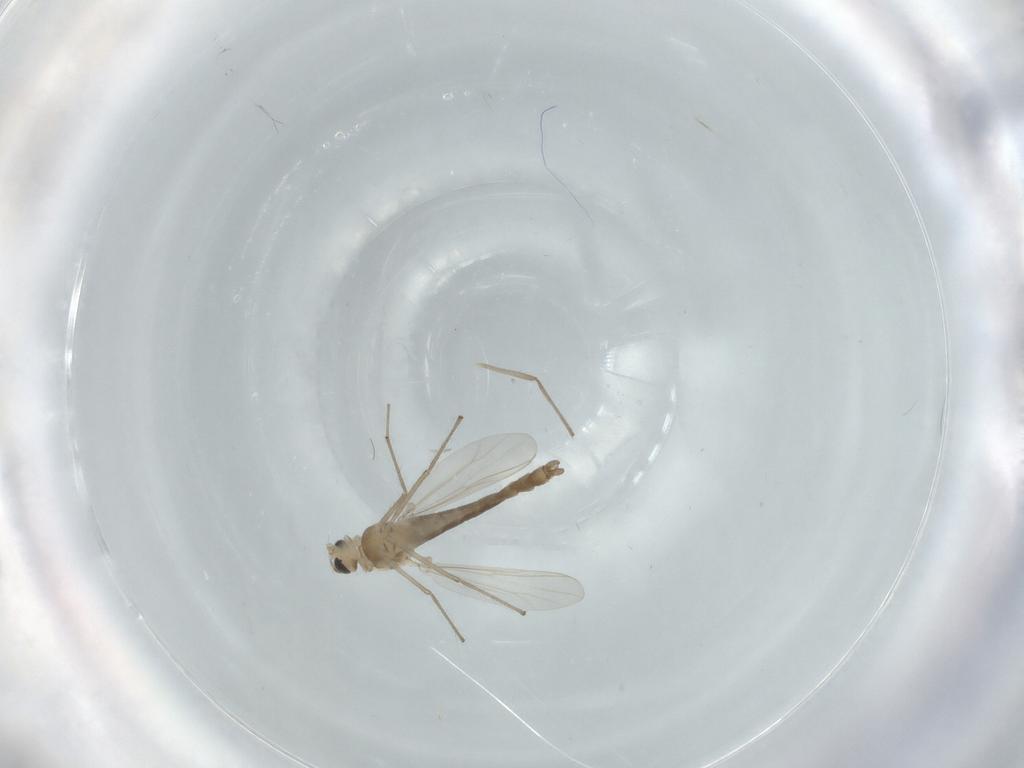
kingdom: Animalia
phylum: Arthropoda
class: Insecta
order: Diptera
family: Chironomidae
